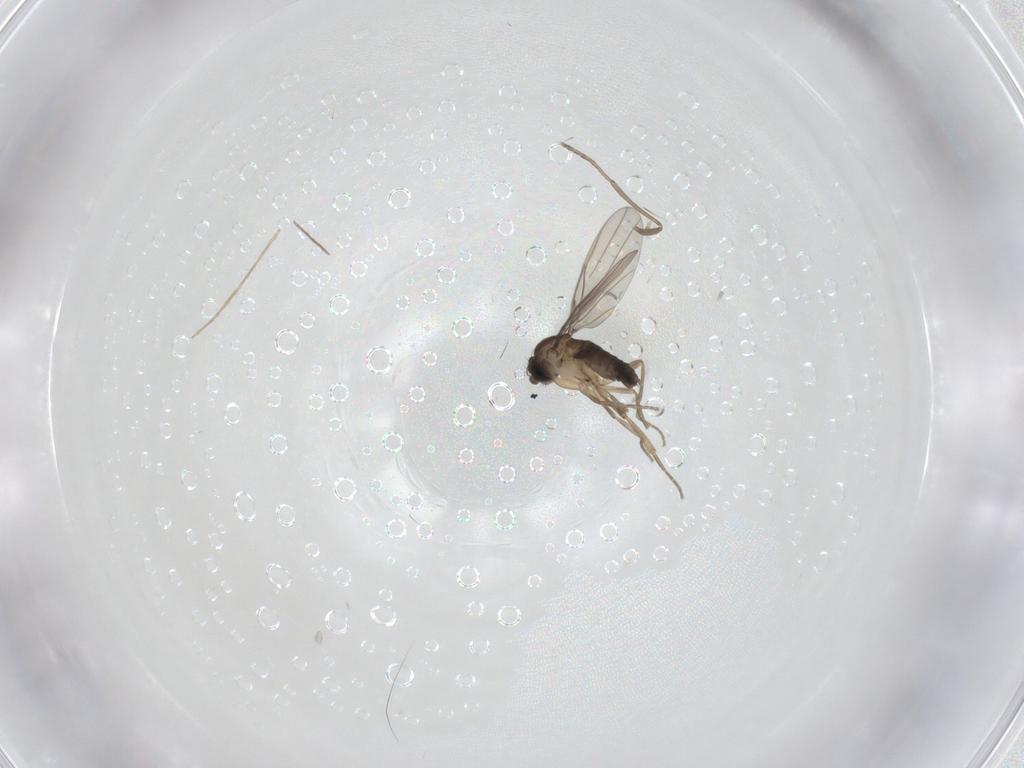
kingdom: Animalia
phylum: Arthropoda
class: Insecta
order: Diptera
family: Phoridae
